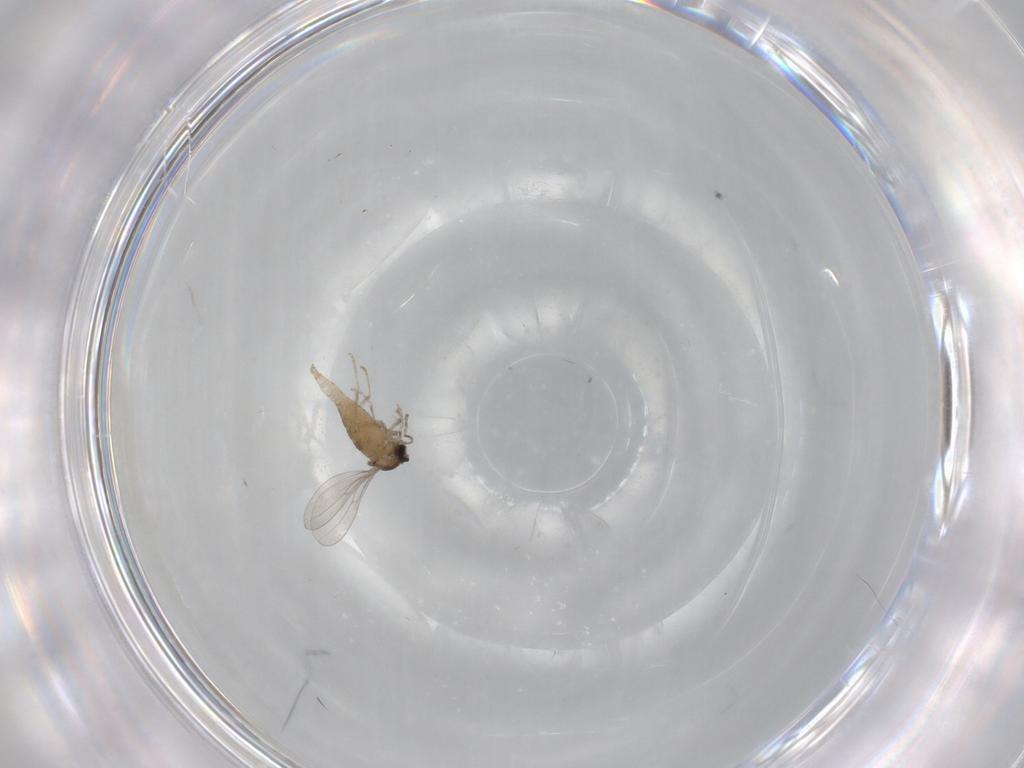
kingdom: Animalia
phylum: Arthropoda
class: Insecta
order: Diptera
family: Cecidomyiidae
